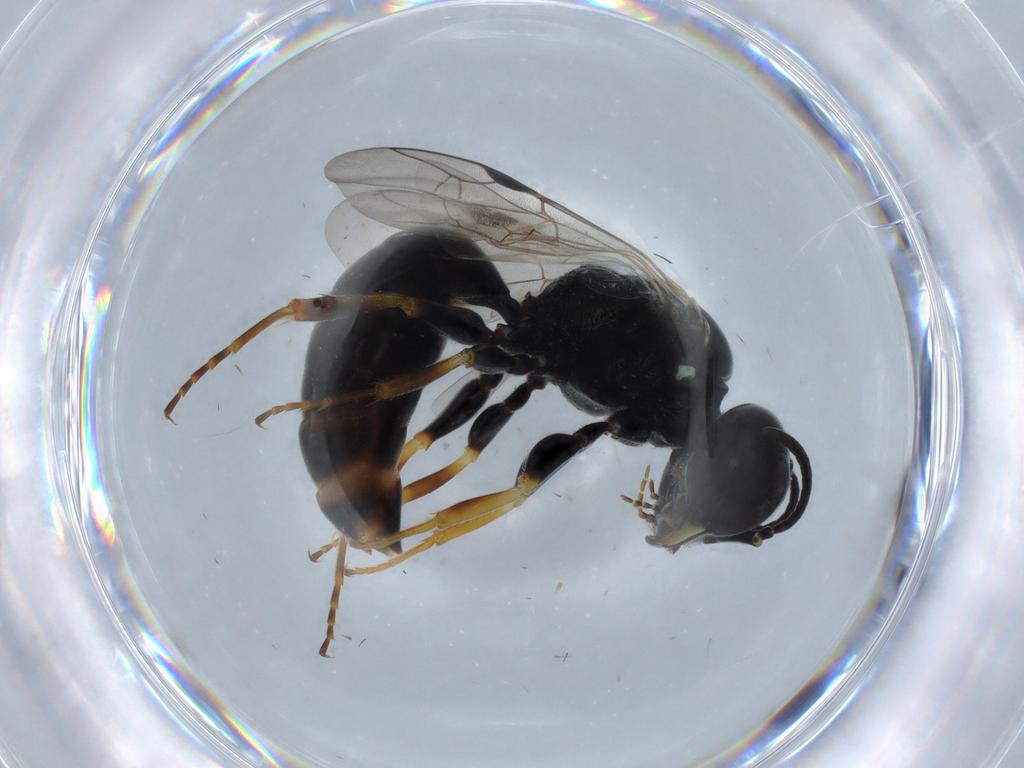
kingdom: Animalia
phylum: Arthropoda
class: Insecta
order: Hymenoptera
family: Crabronidae
